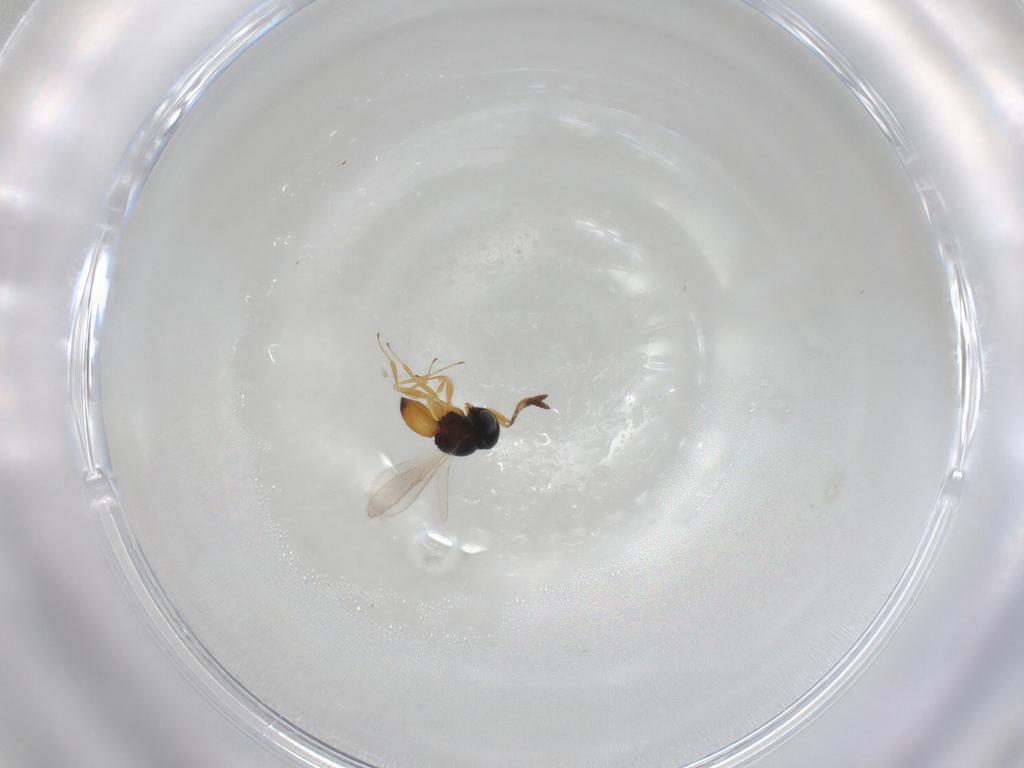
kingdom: Animalia
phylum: Arthropoda
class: Insecta
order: Hymenoptera
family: Scelionidae
